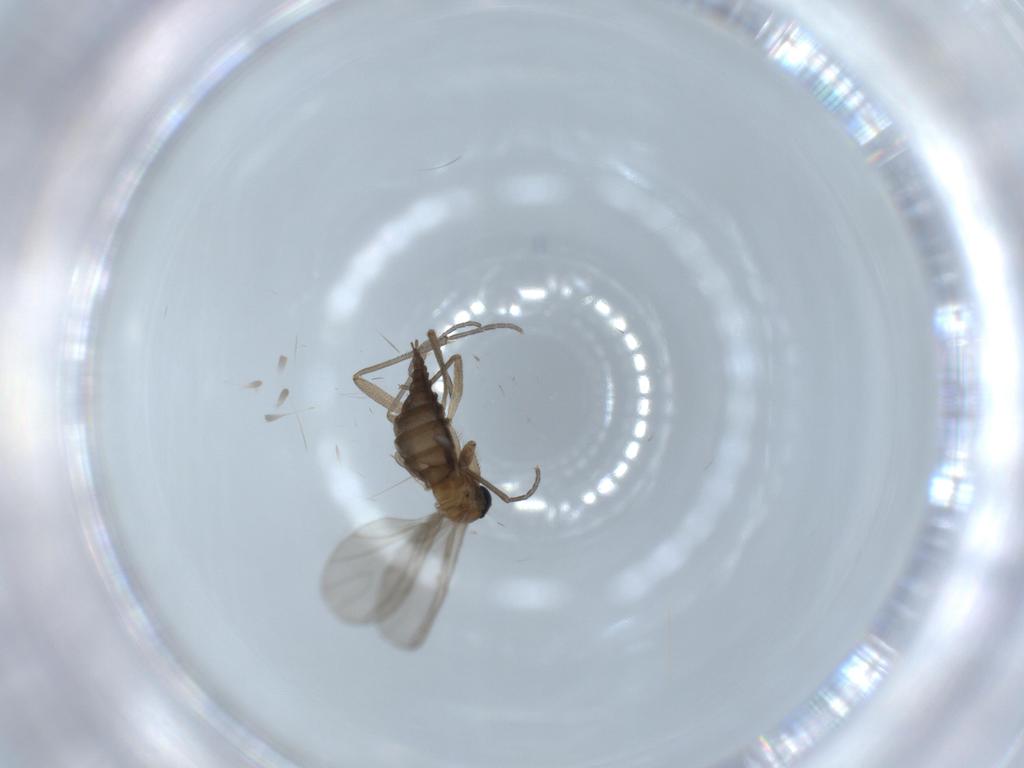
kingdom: Animalia
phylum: Arthropoda
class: Insecta
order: Diptera
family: Sciaridae
